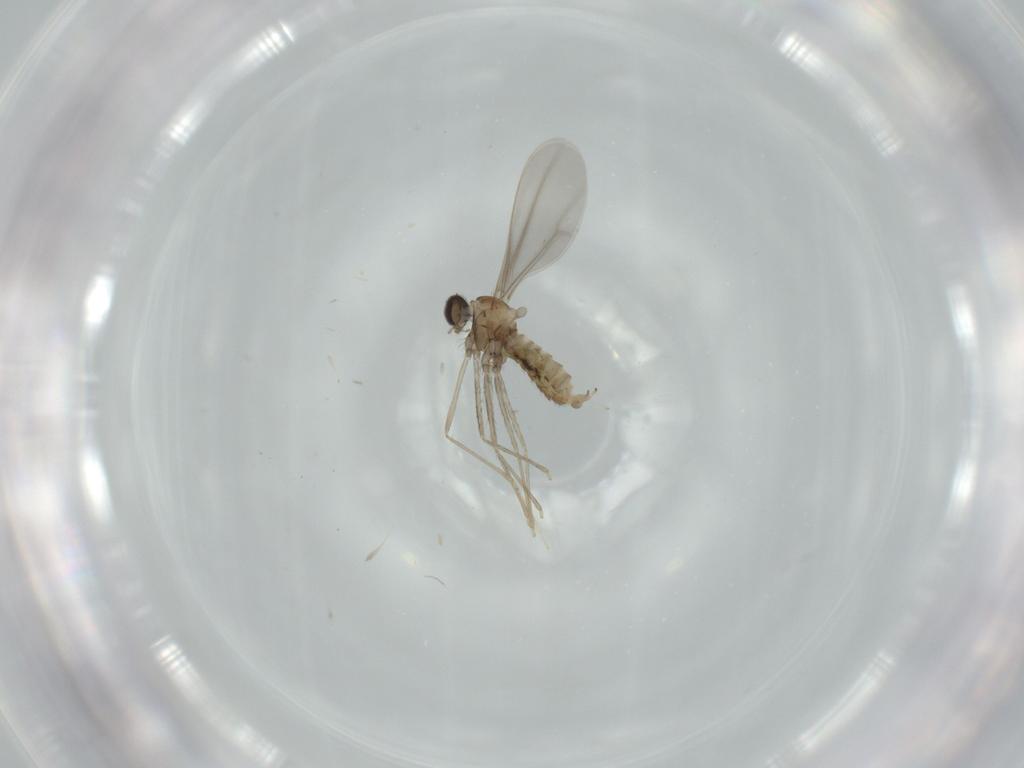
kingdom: Animalia
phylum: Arthropoda
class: Insecta
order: Diptera
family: Cecidomyiidae
